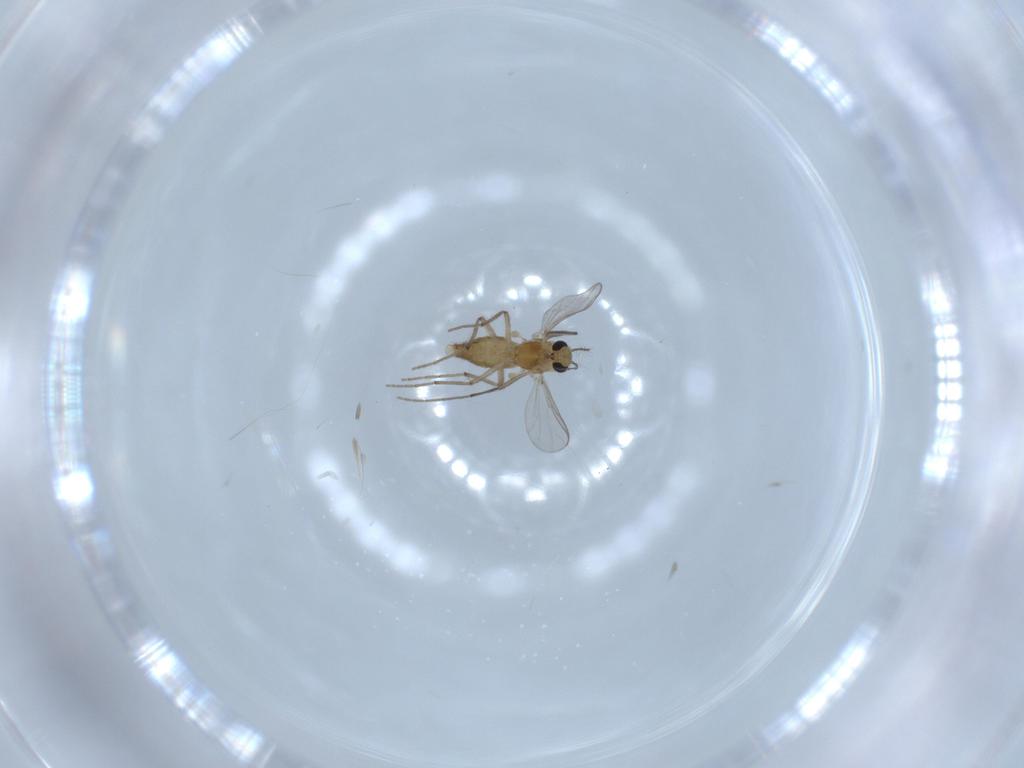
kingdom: Animalia
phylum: Arthropoda
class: Insecta
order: Diptera
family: Chironomidae
